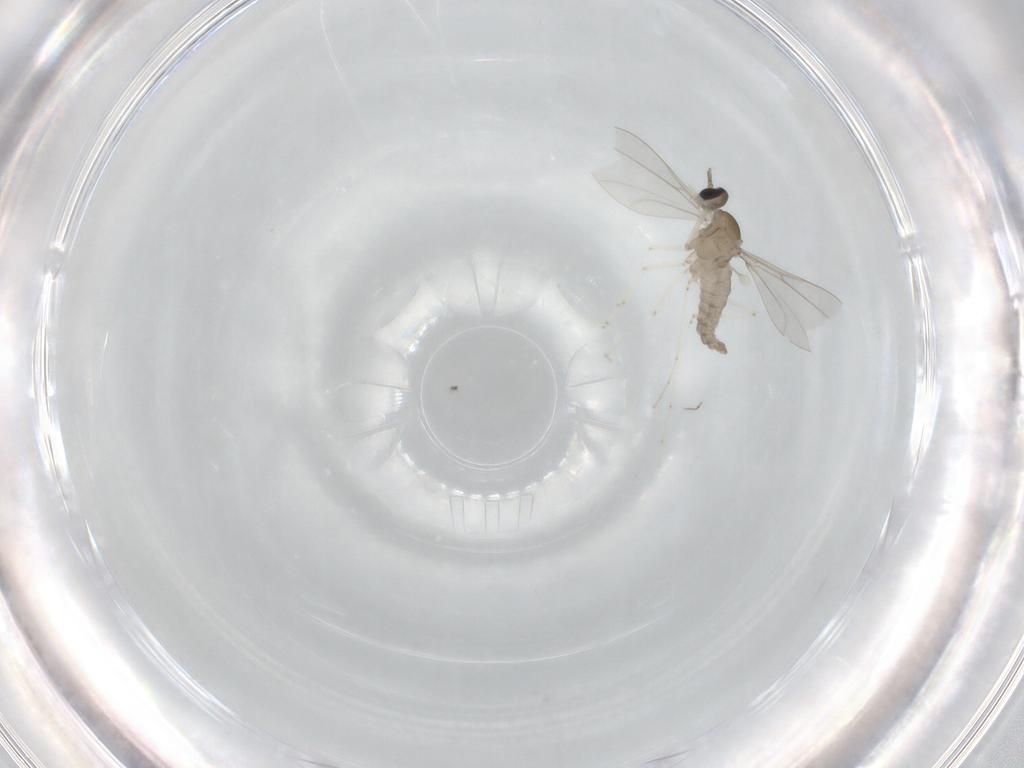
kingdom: Animalia
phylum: Arthropoda
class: Insecta
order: Diptera
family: Cecidomyiidae
